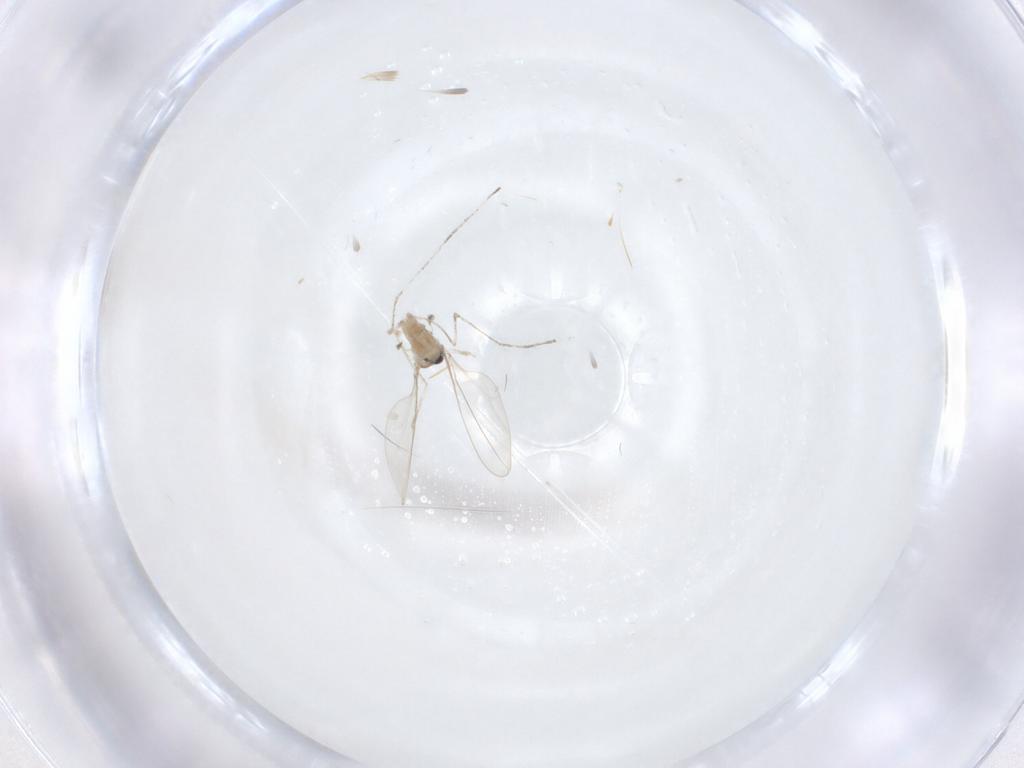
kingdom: Animalia
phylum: Arthropoda
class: Insecta
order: Diptera
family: Cecidomyiidae
